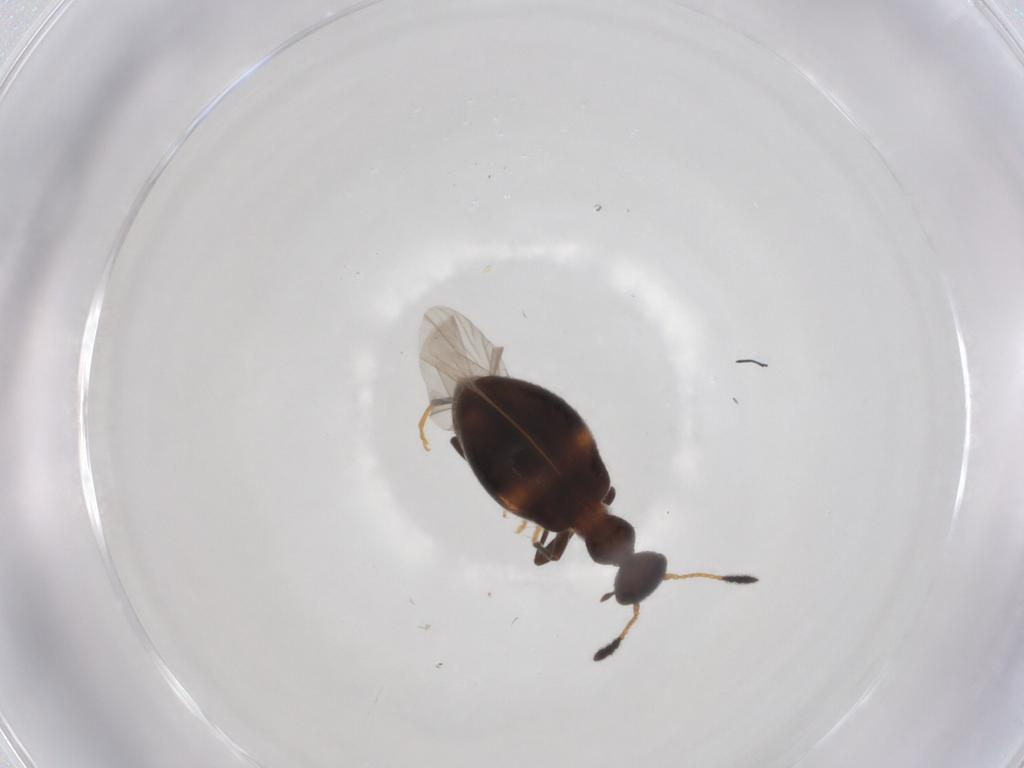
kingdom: Animalia
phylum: Arthropoda
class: Insecta
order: Coleoptera
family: Anthicidae
